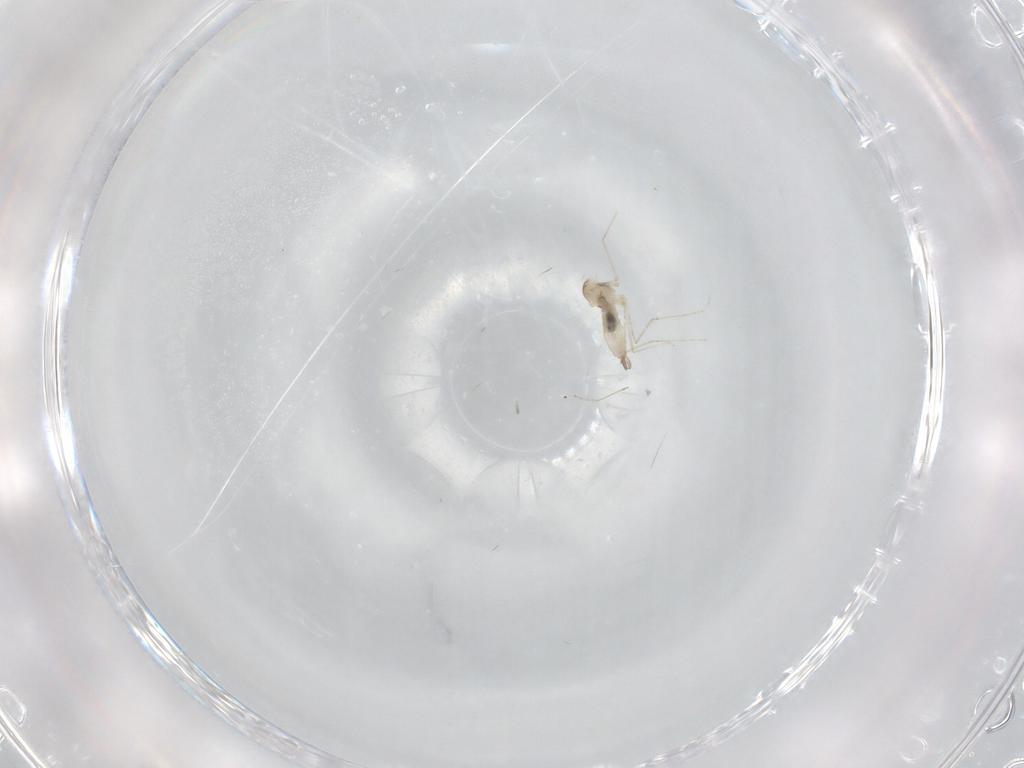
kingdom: Animalia
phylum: Arthropoda
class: Insecta
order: Diptera
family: Cecidomyiidae
